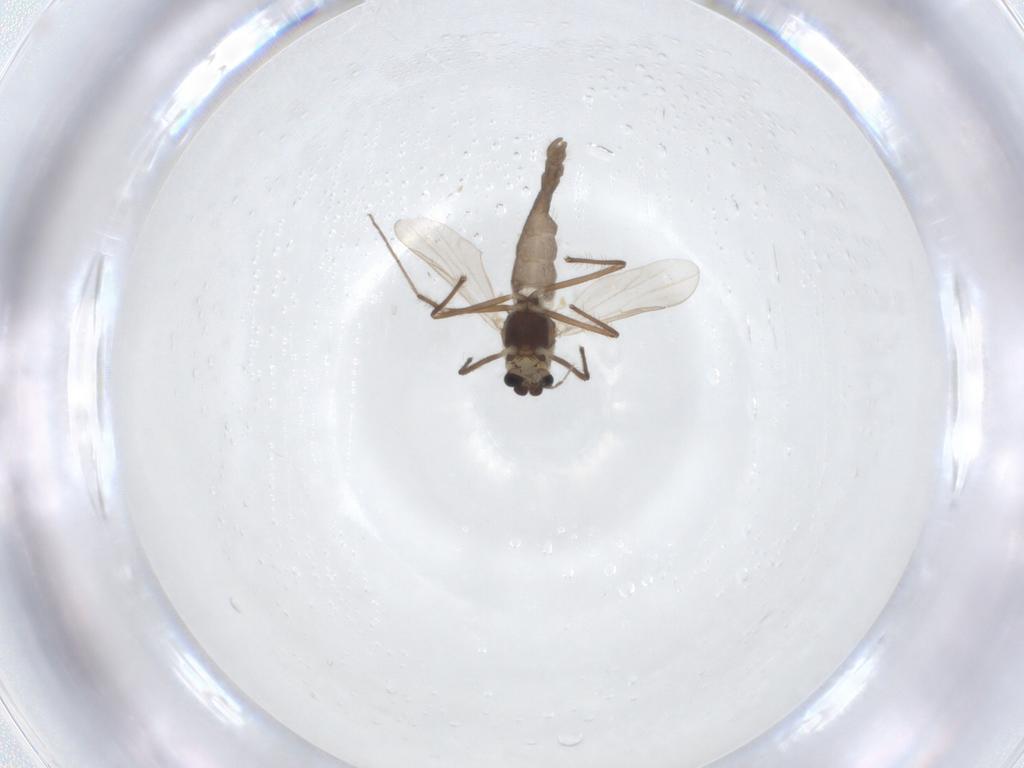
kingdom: Animalia
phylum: Arthropoda
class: Insecta
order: Diptera
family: Chironomidae
